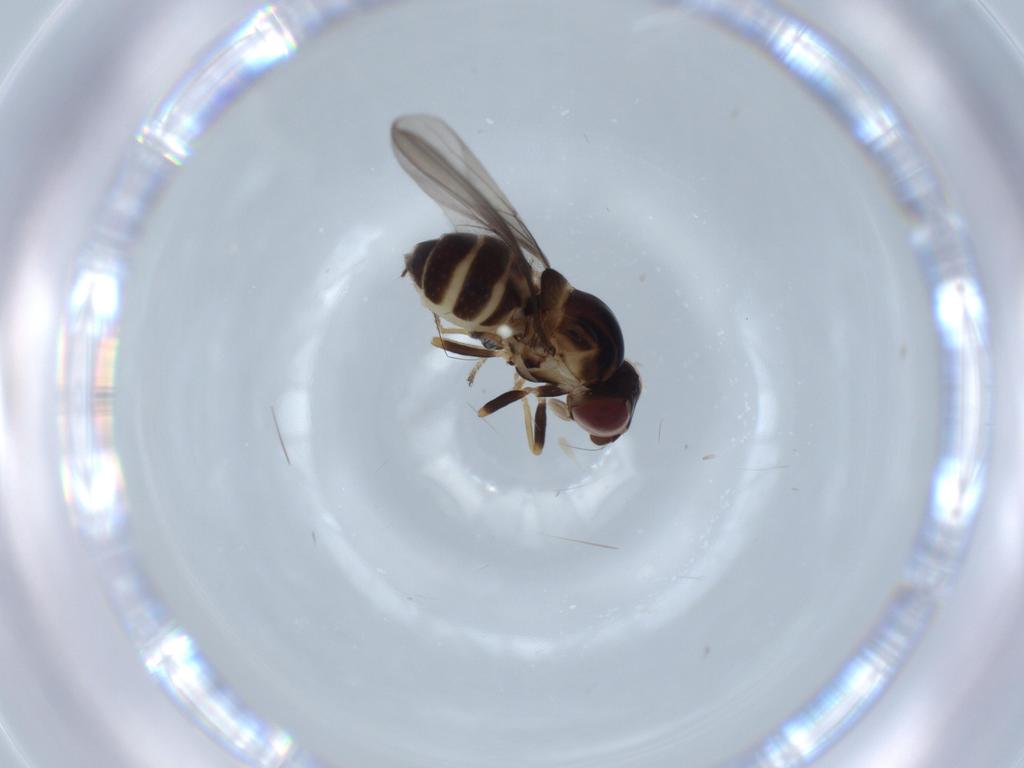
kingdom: Animalia
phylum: Arthropoda
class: Insecta
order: Diptera
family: Chloropidae
